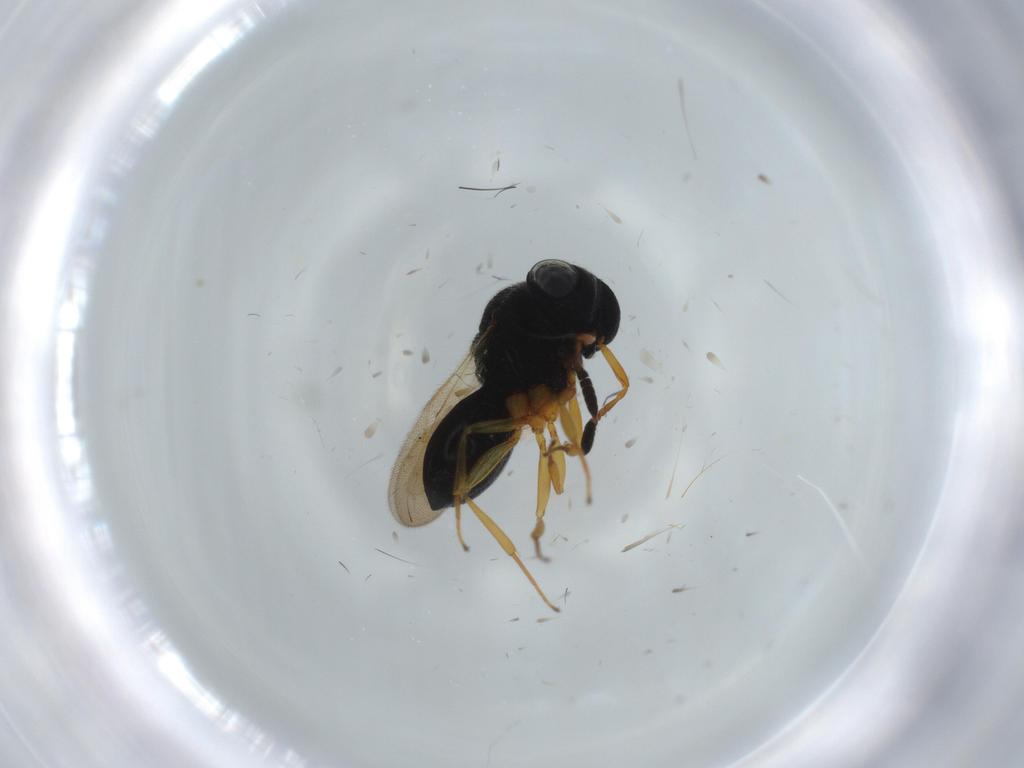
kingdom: Animalia
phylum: Arthropoda
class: Insecta
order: Hymenoptera
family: Scelionidae
